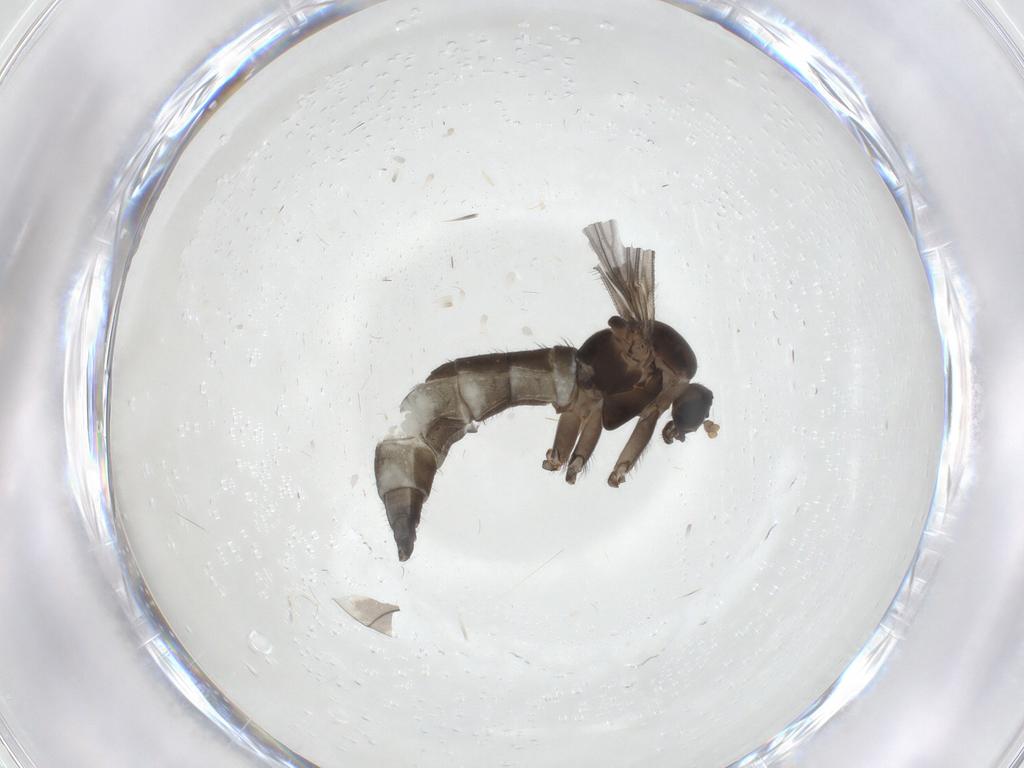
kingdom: Animalia
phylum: Arthropoda
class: Insecta
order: Diptera
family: Sciaridae
